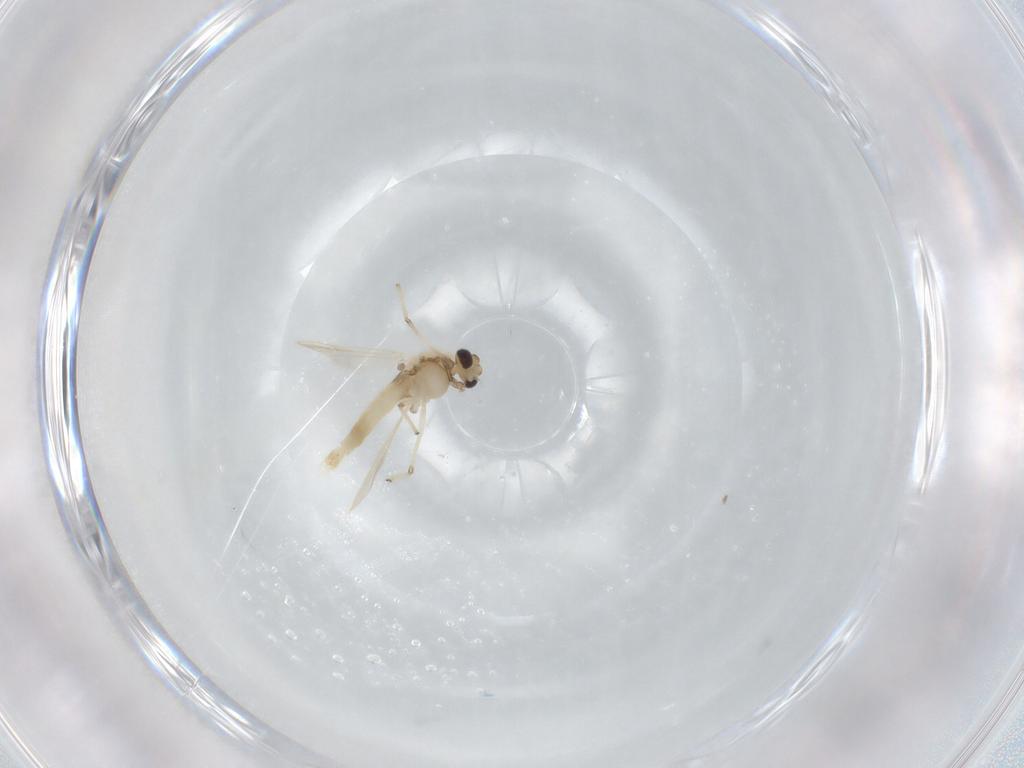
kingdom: Animalia
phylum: Arthropoda
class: Insecta
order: Diptera
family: Chironomidae
